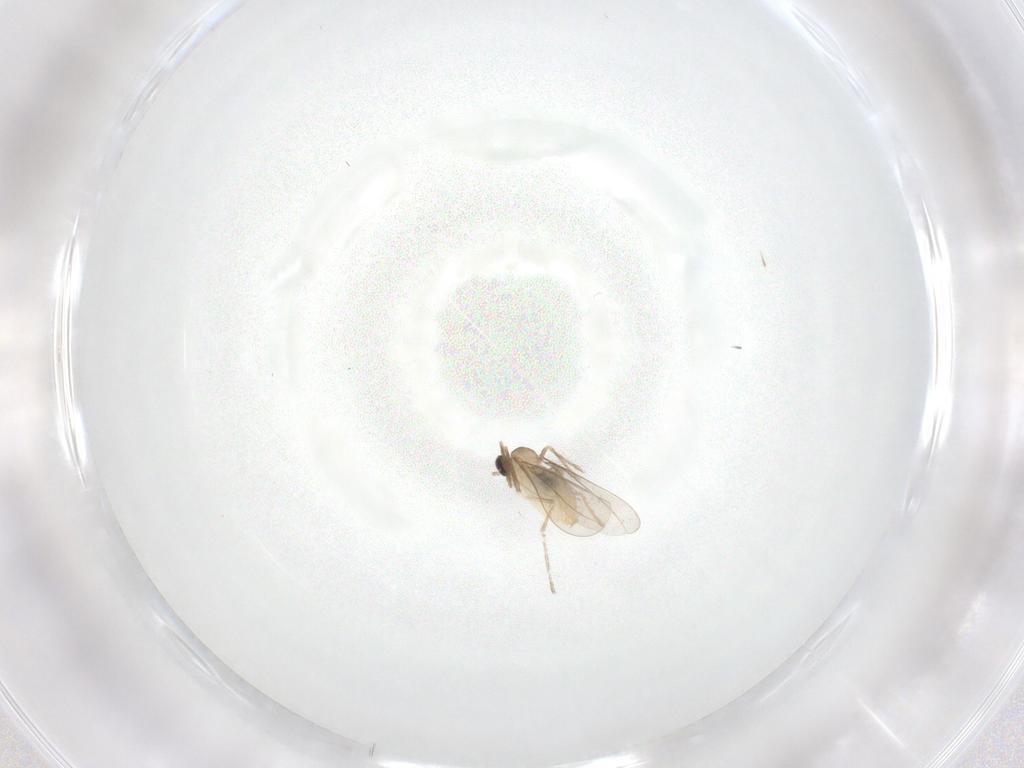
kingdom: Animalia
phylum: Arthropoda
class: Insecta
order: Diptera
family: Cecidomyiidae
